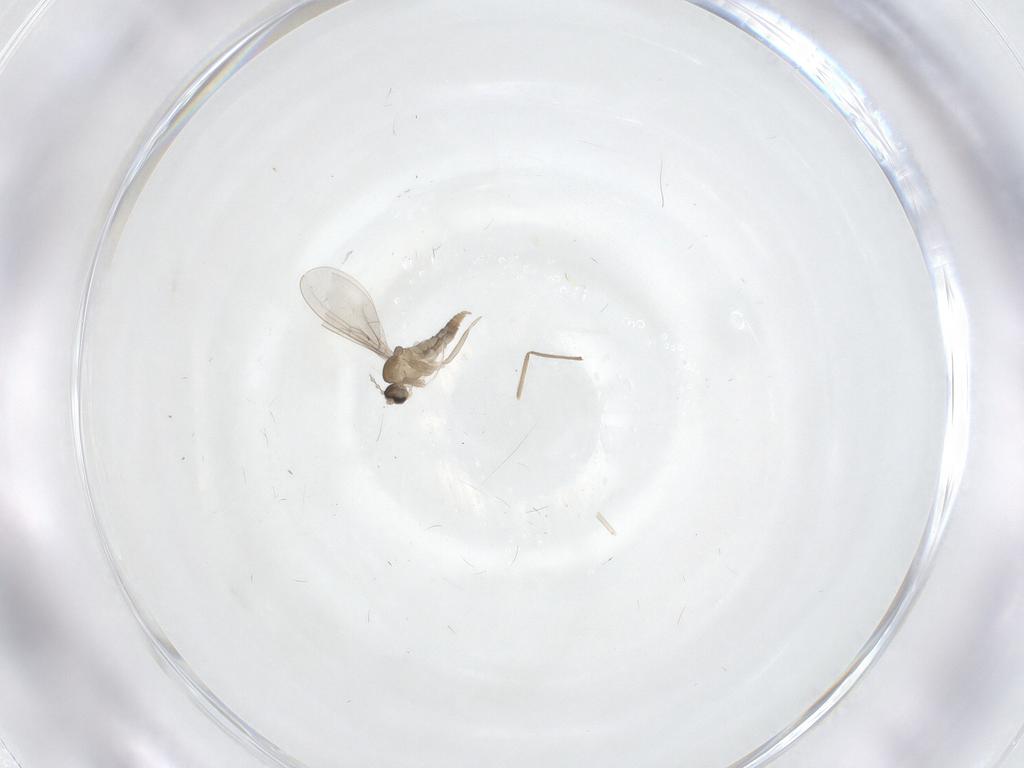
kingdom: Animalia
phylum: Arthropoda
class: Insecta
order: Diptera
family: Cecidomyiidae
